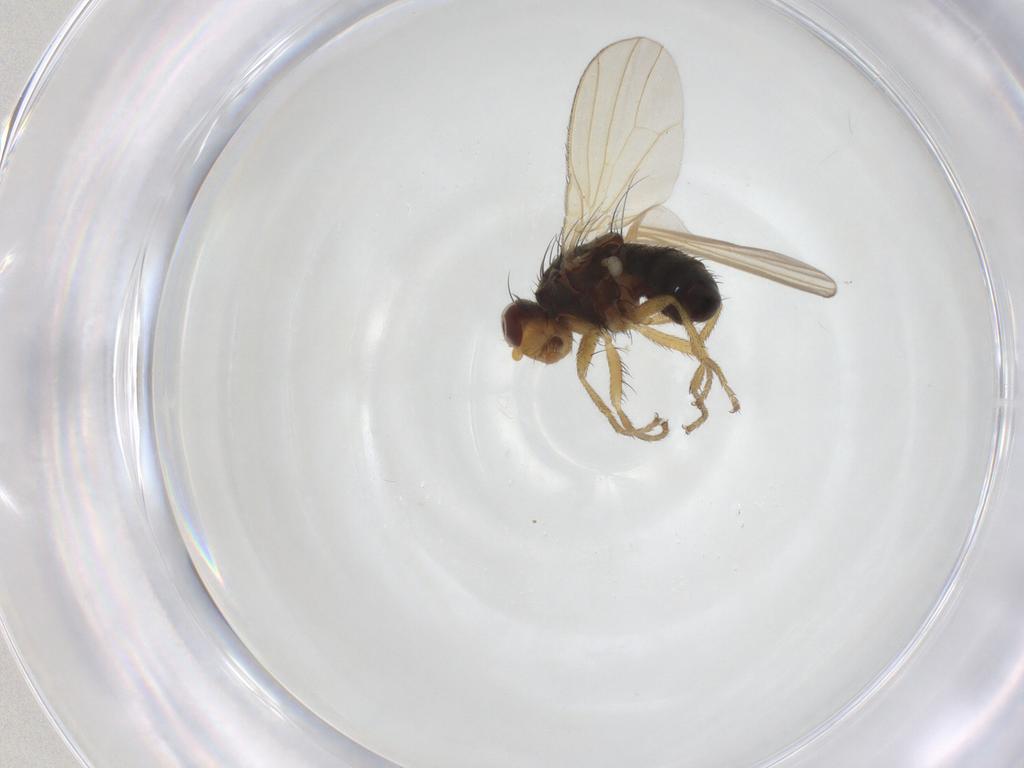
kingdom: Animalia
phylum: Arthropoda
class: Insecta
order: Diptera
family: Heleomyzidae
